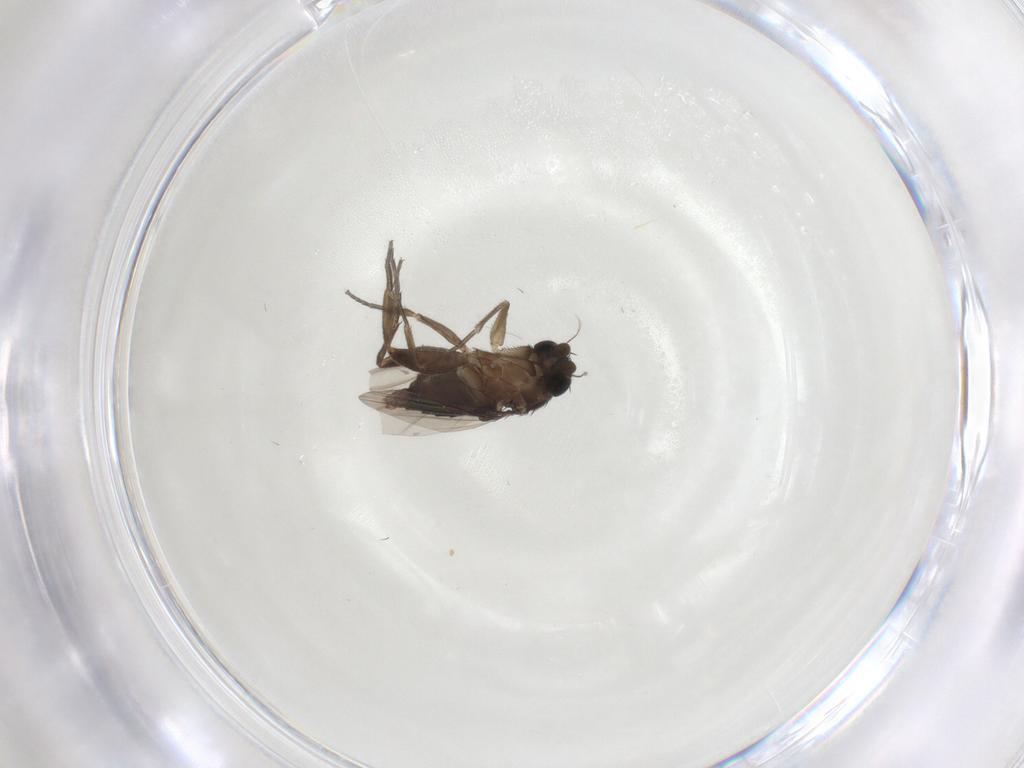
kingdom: Animalia
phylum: Arthropoda
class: Insecta
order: Diptera
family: Phoridae
